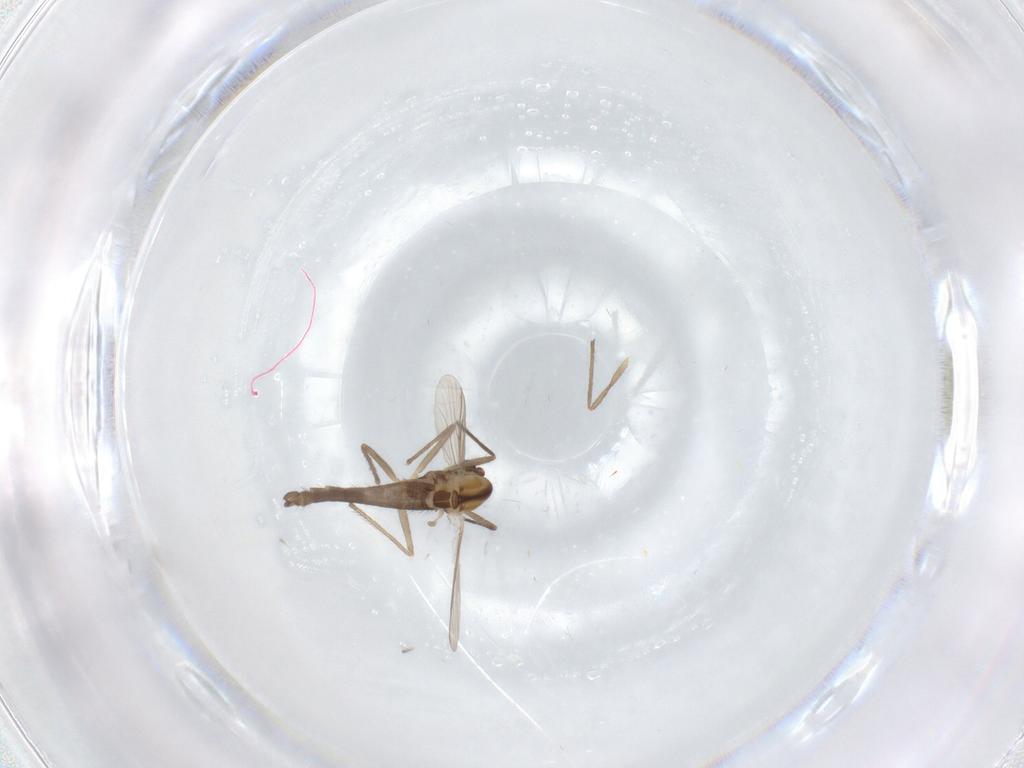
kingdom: Animalia
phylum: Arthropoda
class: Insecta
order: Diptera
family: Chironomidae
